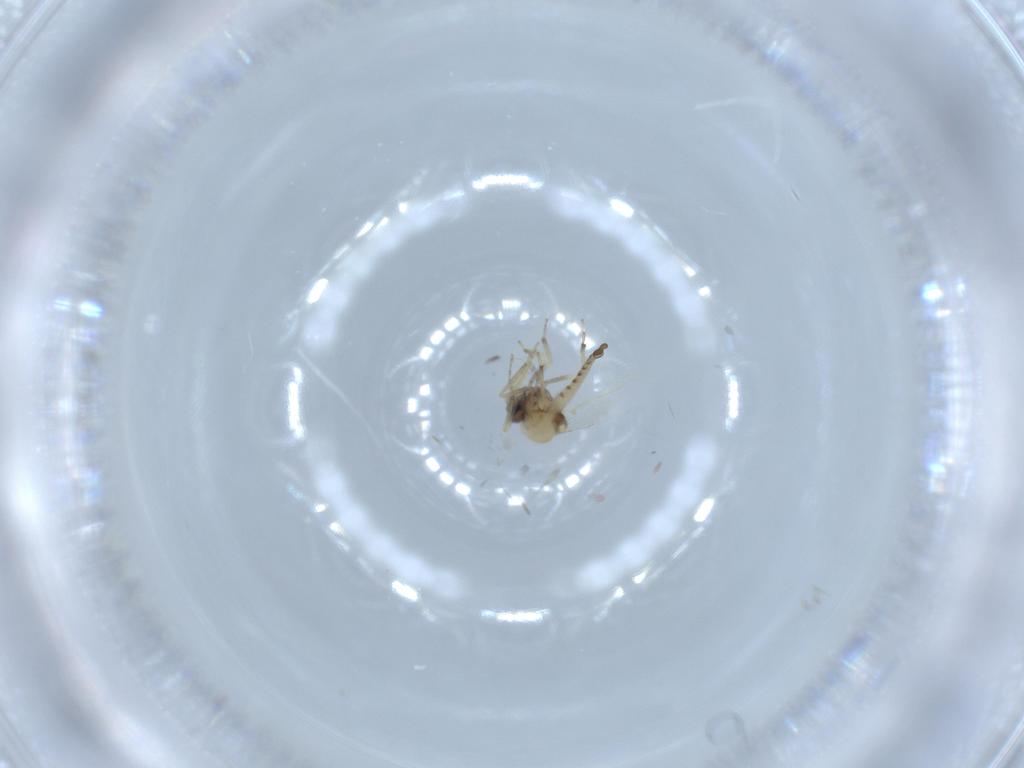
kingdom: Animalia
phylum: Arthropoda
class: Insecta
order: Diptera
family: Ceratopogonidae
